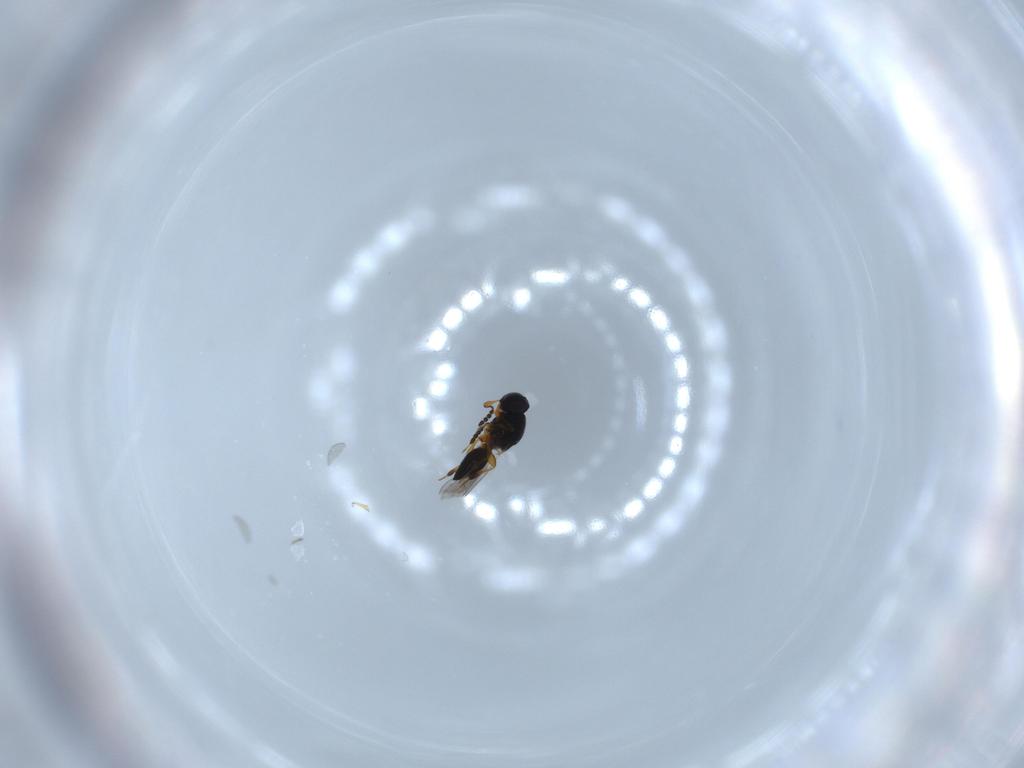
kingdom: Animalia
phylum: Arthropoda
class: Insecta
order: Hymenoptera
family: Platygastridae
